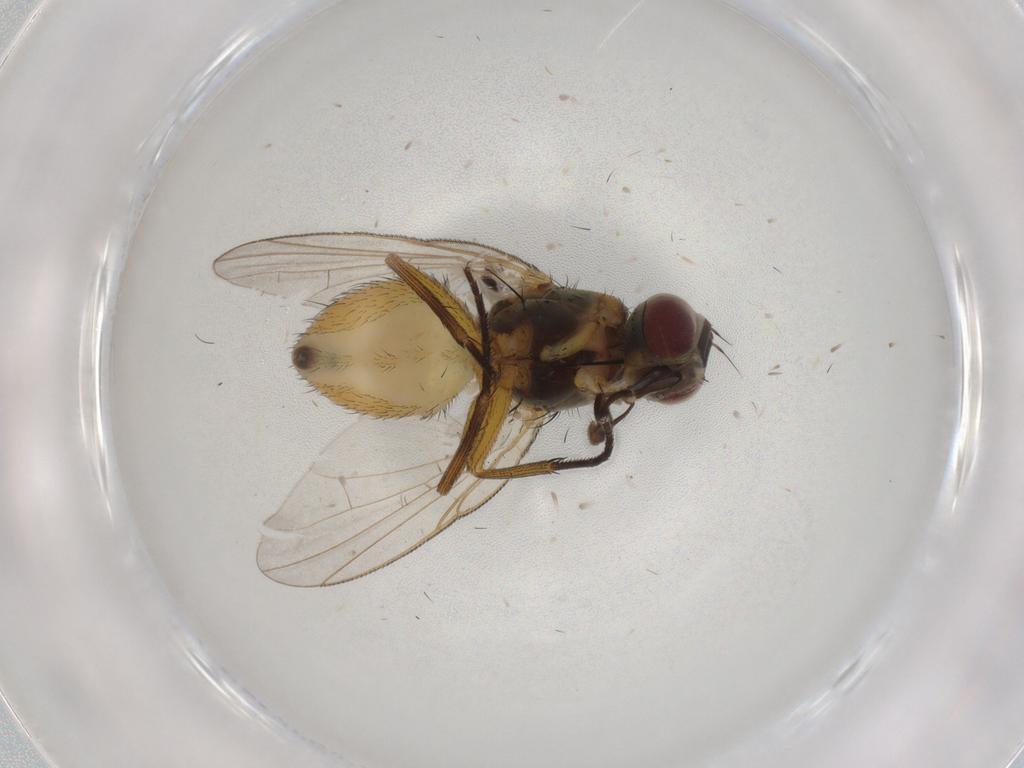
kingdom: Animalia
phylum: Arthropoda
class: Insecta
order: Diptera
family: Muscidae
